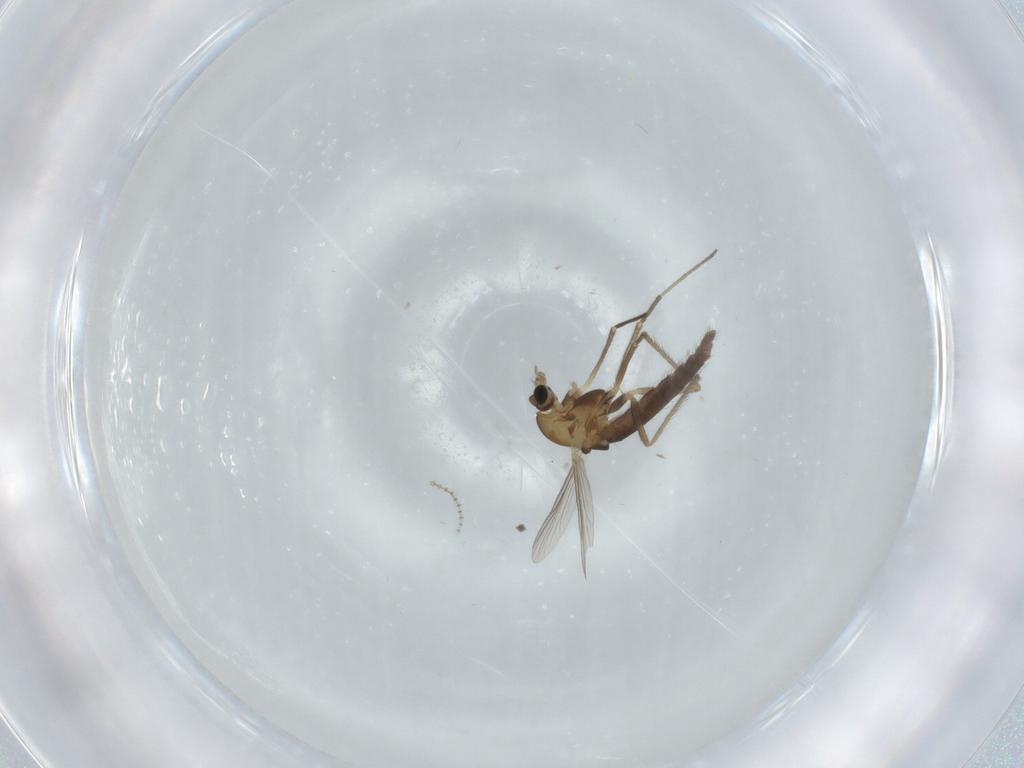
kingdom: Animalia
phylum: Arthropoda
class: Insecta
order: Diptera
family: Chironomidae
